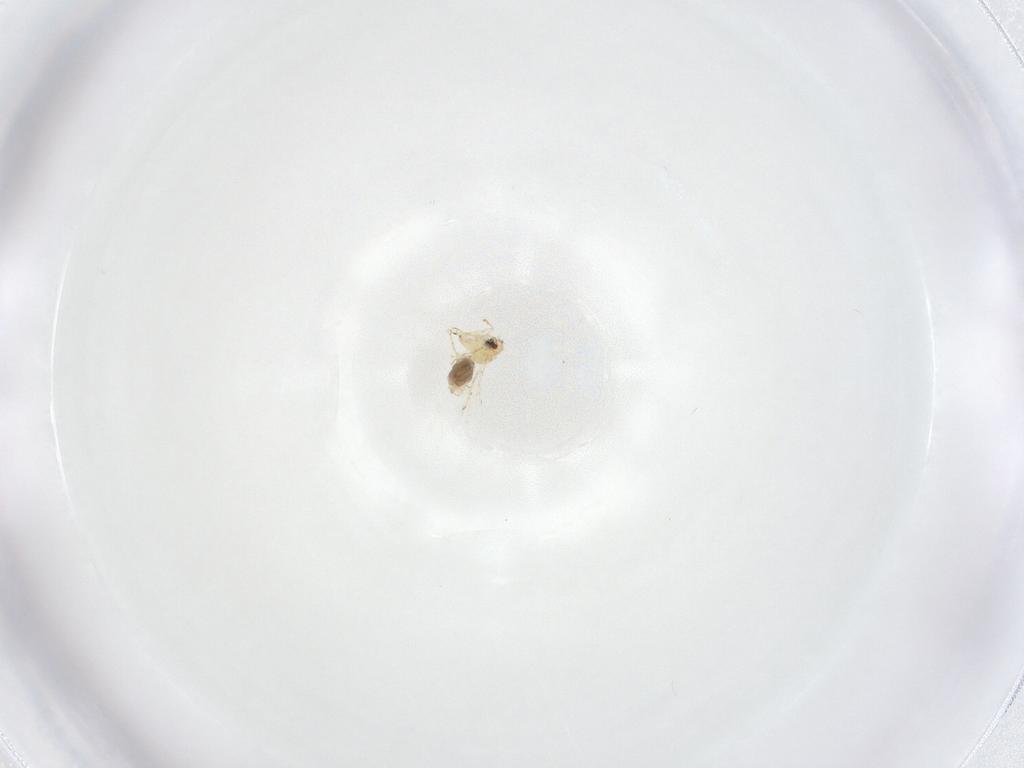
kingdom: Animalia
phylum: Arthropoda
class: Insecta
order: Hemiptera
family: Aleyrodidae
